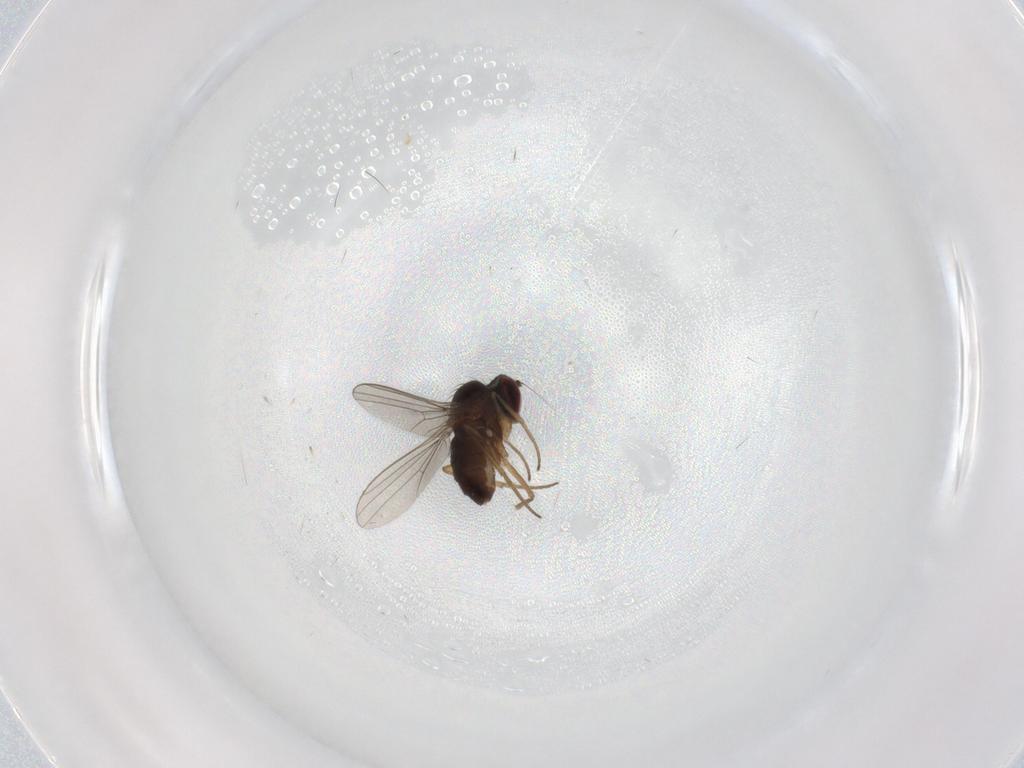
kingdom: Animalia
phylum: Arthropoda
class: Insecta
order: Diptera
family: Dolichopodidae
